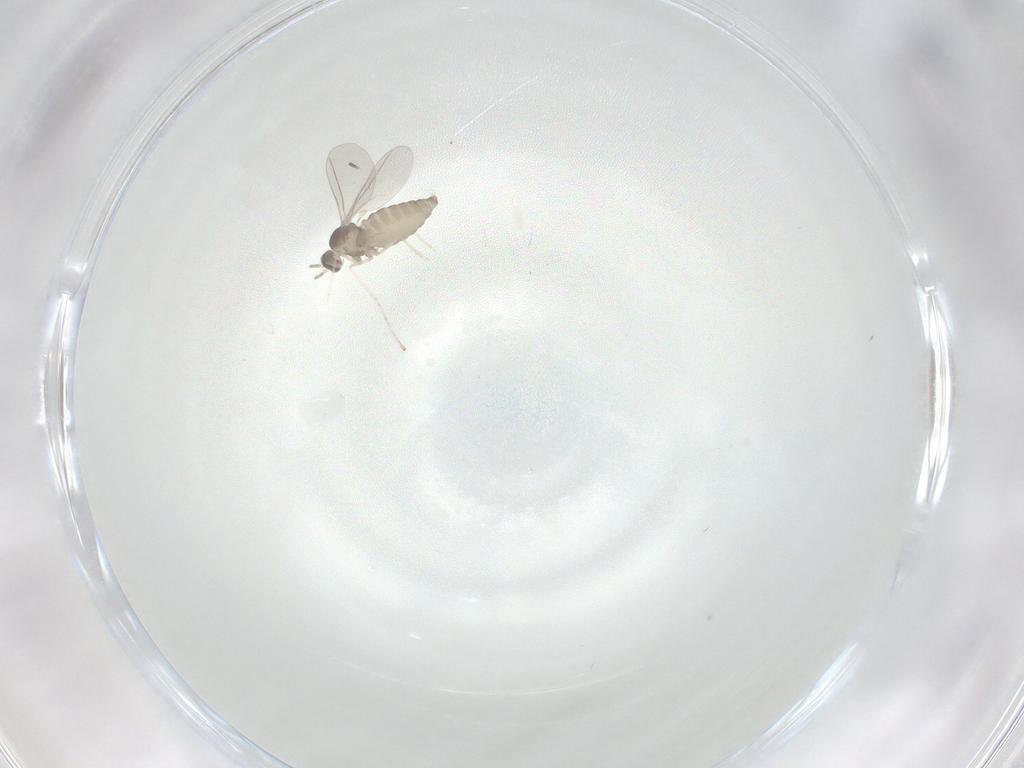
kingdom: Animalia
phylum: Arthropoda
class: Insecta
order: Diptera
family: Cecidomyiidae
